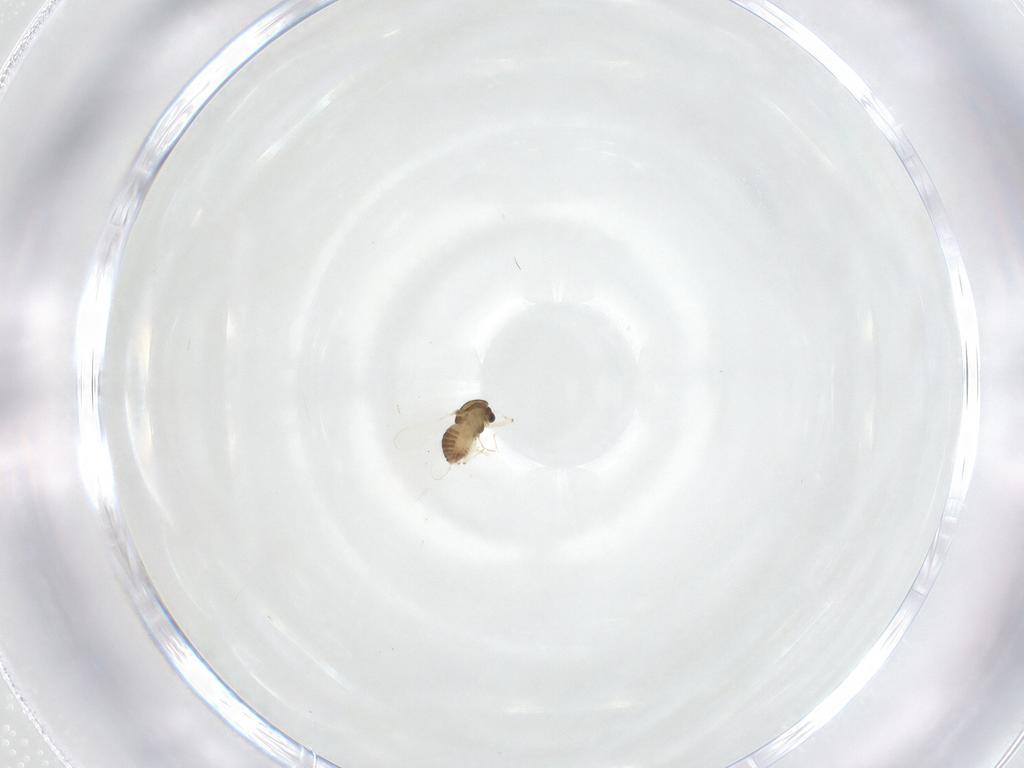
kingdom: Animalia
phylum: Arthropoda
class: Insecta
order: Diptera
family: Chironomidae
